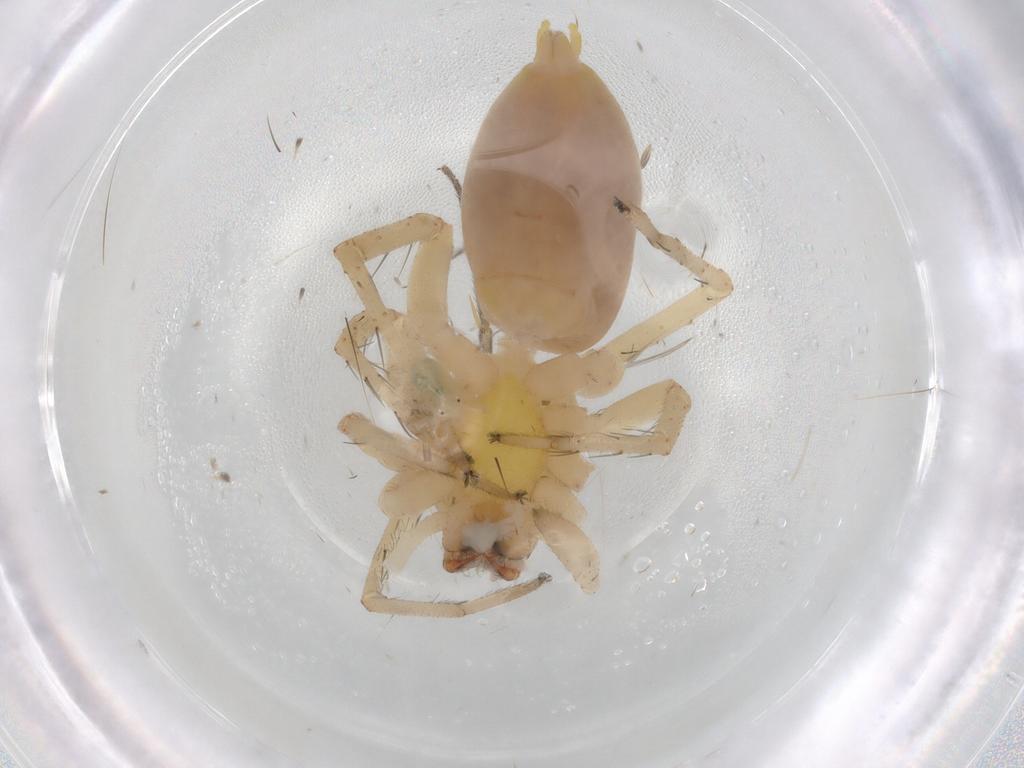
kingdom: Animalia
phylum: Arthropoda
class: Arachnida
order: Araneae
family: Anyphaenidae
